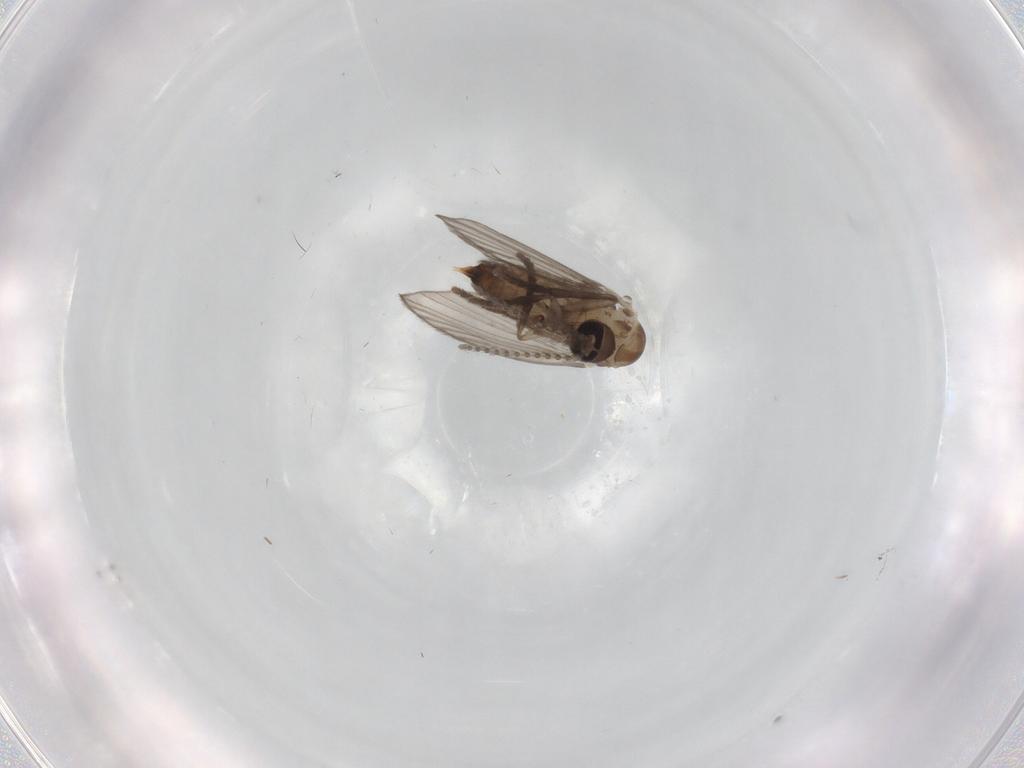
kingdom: Animalia
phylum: Arthropoda
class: Insecta
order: Diptera
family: Psychodidae
